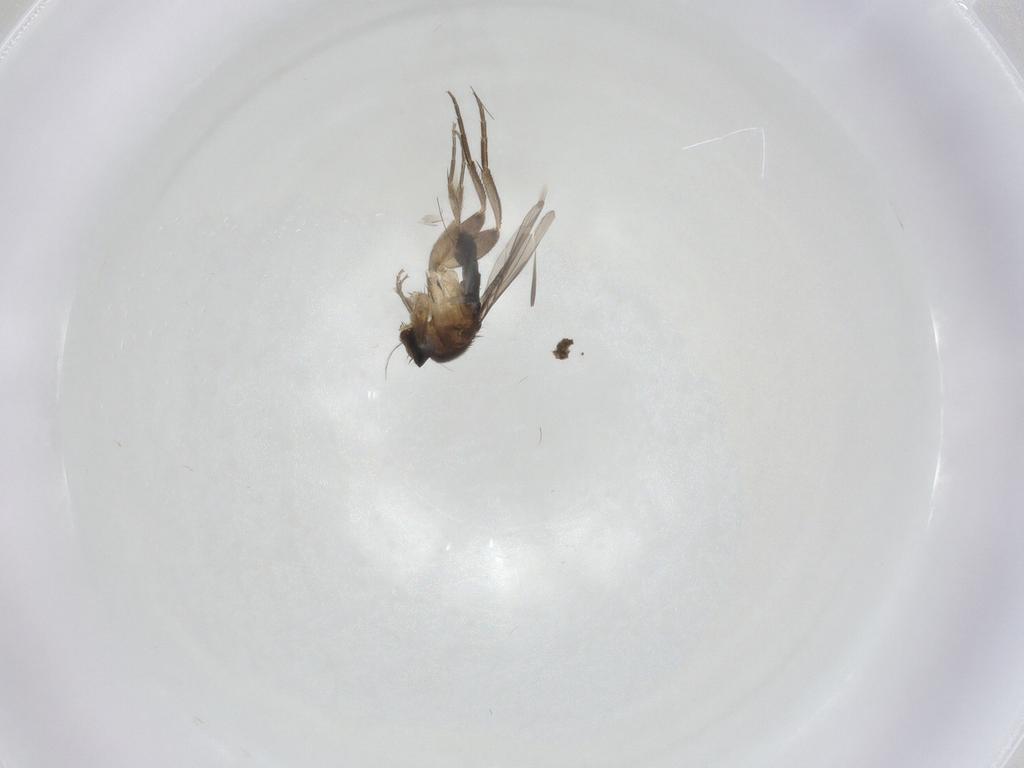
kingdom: Animalia
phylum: Arthropoda
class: Insecta
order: Diptera
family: Phoridae
